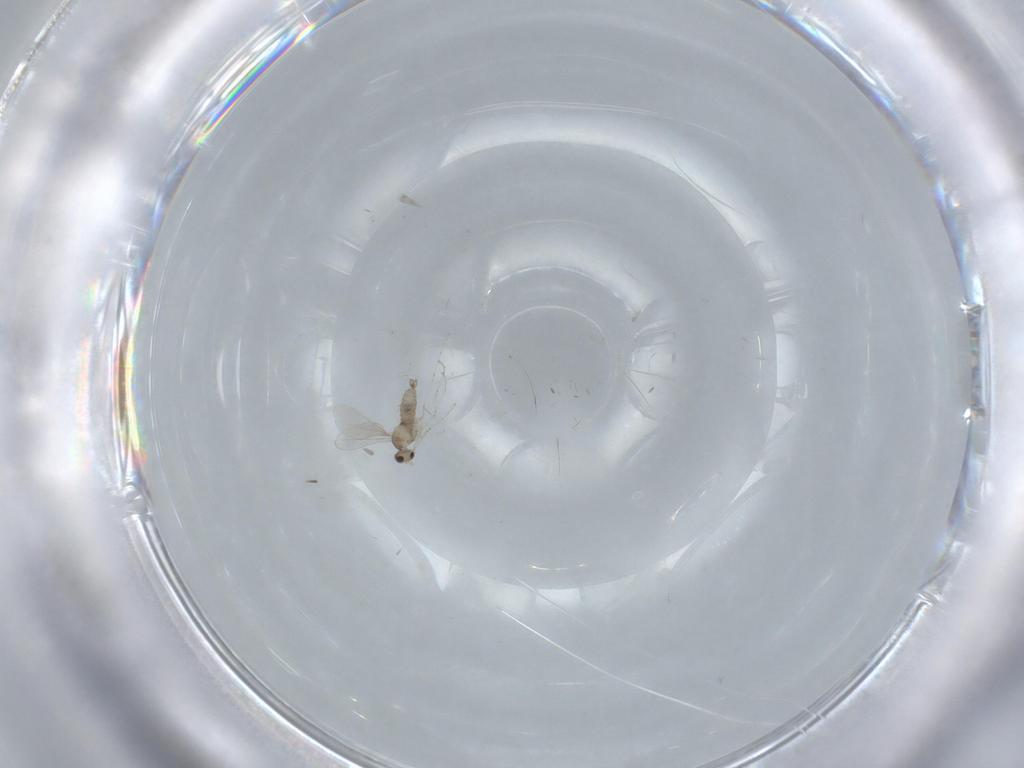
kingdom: Animalia
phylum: Arthropoda
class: Insecta
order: Diptera
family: Cecidomyiidae
